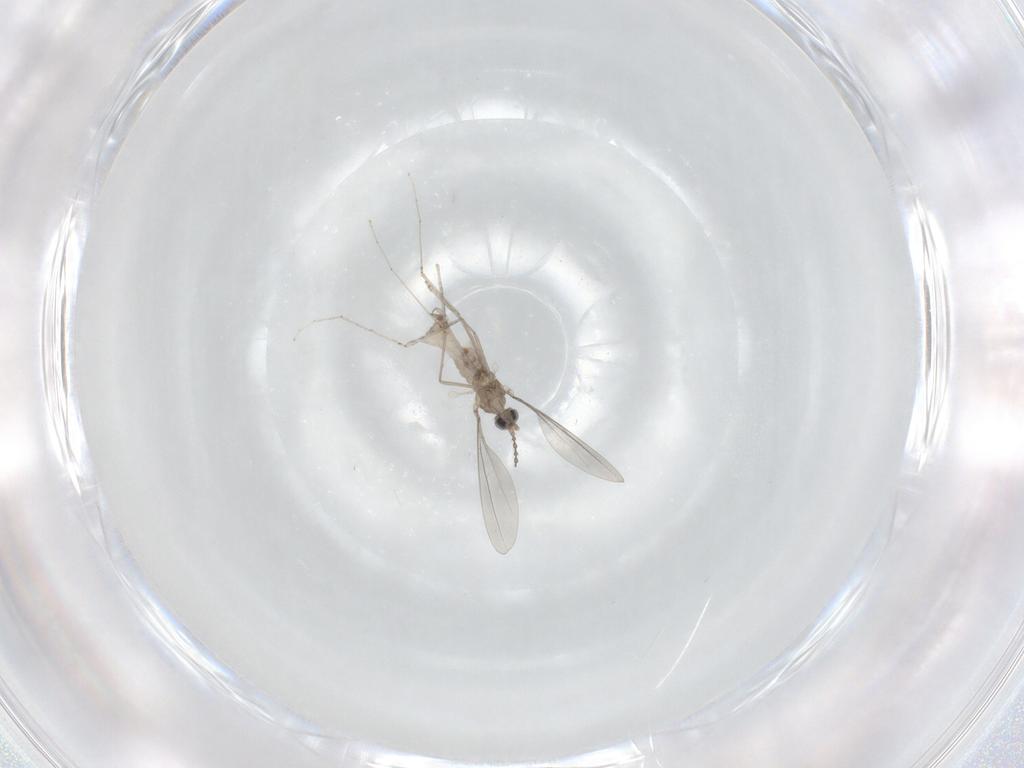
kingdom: Animalia
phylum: Arthropoda
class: Insecta
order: Diptera
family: Cecidomyiidae
